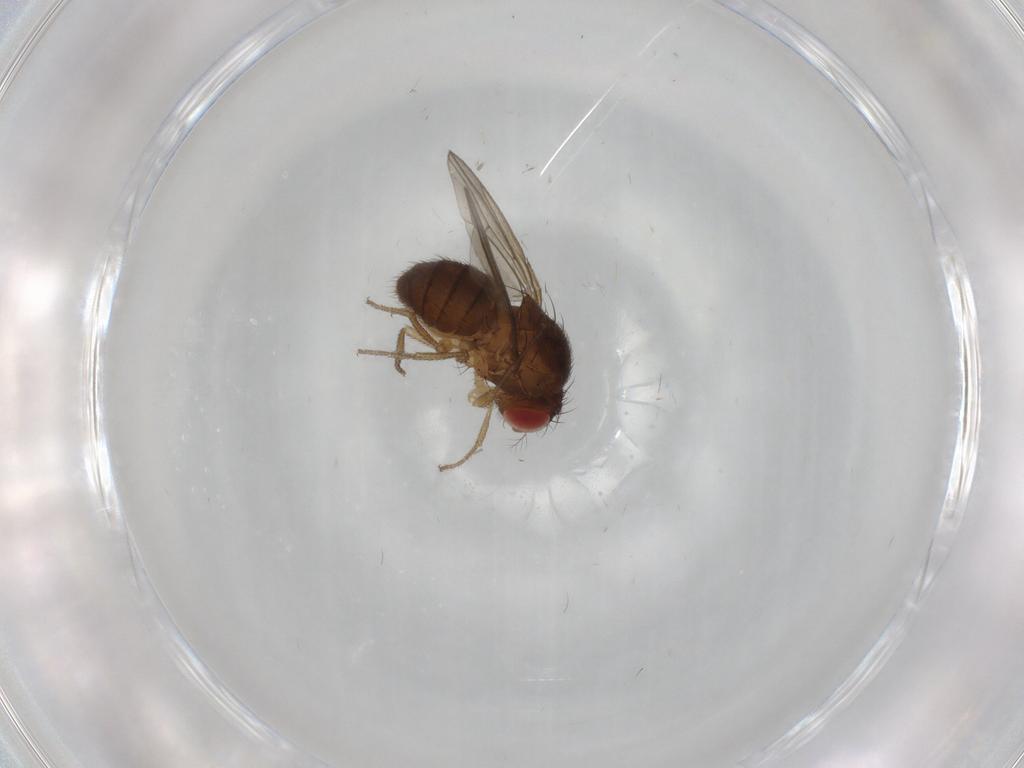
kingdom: Animalia
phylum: Arthropoda
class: Insecta
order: Diptera
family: Drosophilidae
